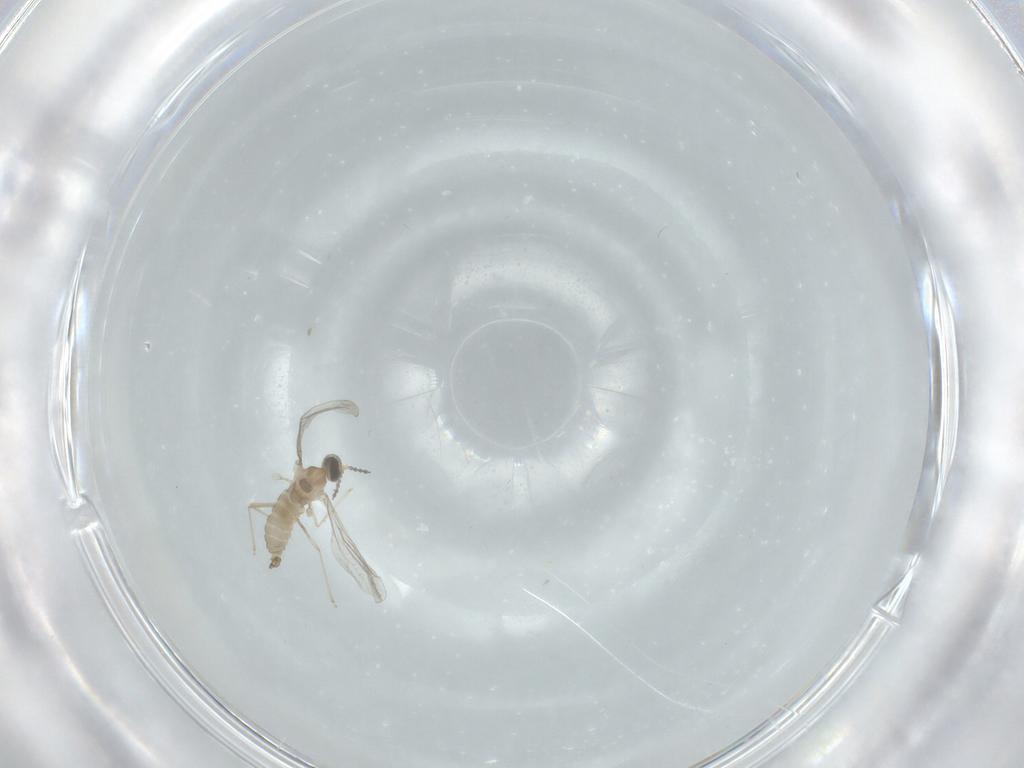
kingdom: Animalia
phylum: Arthropoda
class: Insecta
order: Diptera
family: Cecidomyiidae
